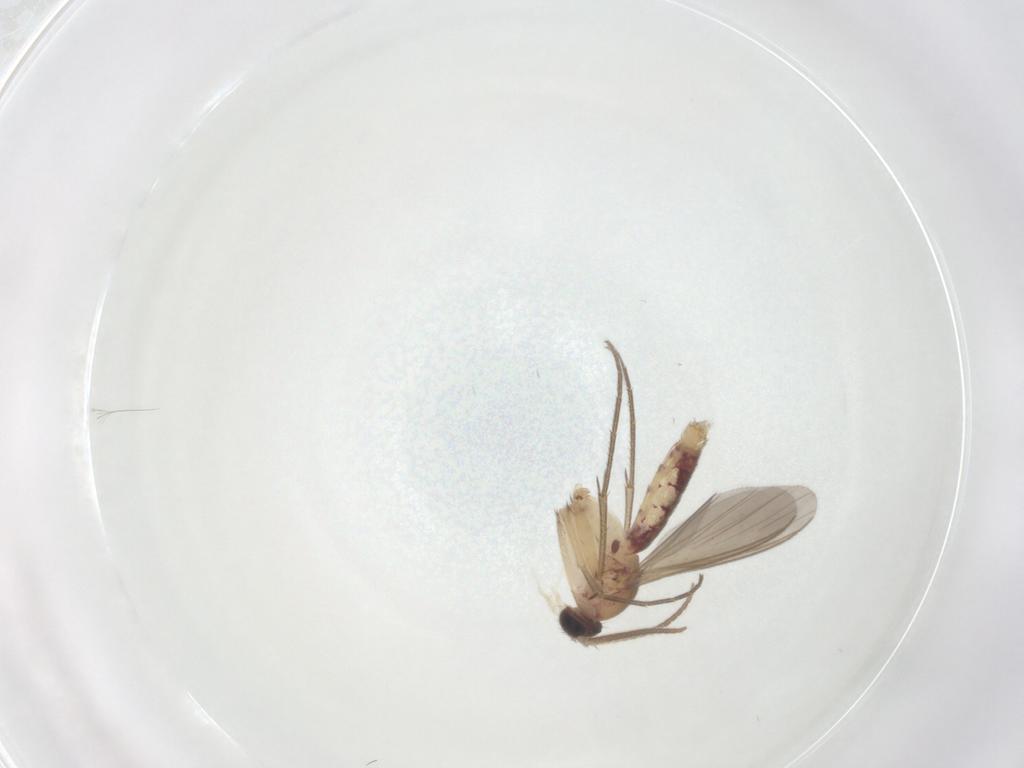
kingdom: Animalia
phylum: Arthropoda
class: Insecta
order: Diptera
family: Mycetophilidae
